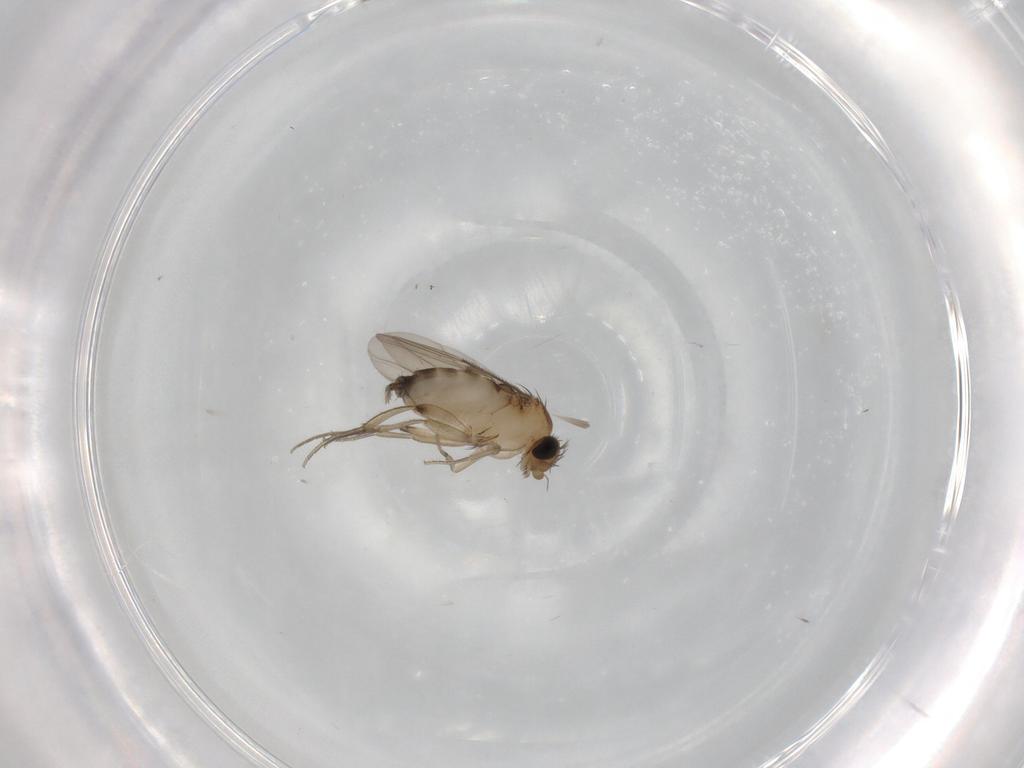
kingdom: Animalia
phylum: Arthropoda
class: Insecta
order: Diptera
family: Phoridae
